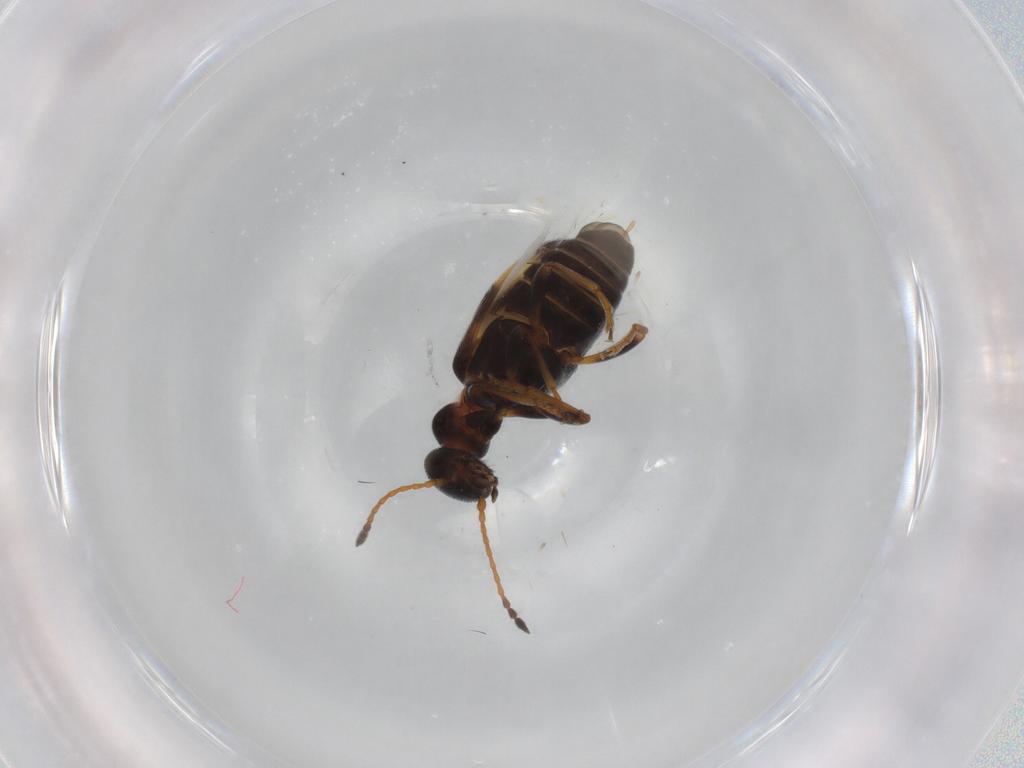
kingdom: Animalia
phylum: Arthropoda
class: Insecta
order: Coleoptera
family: Anthicidae
